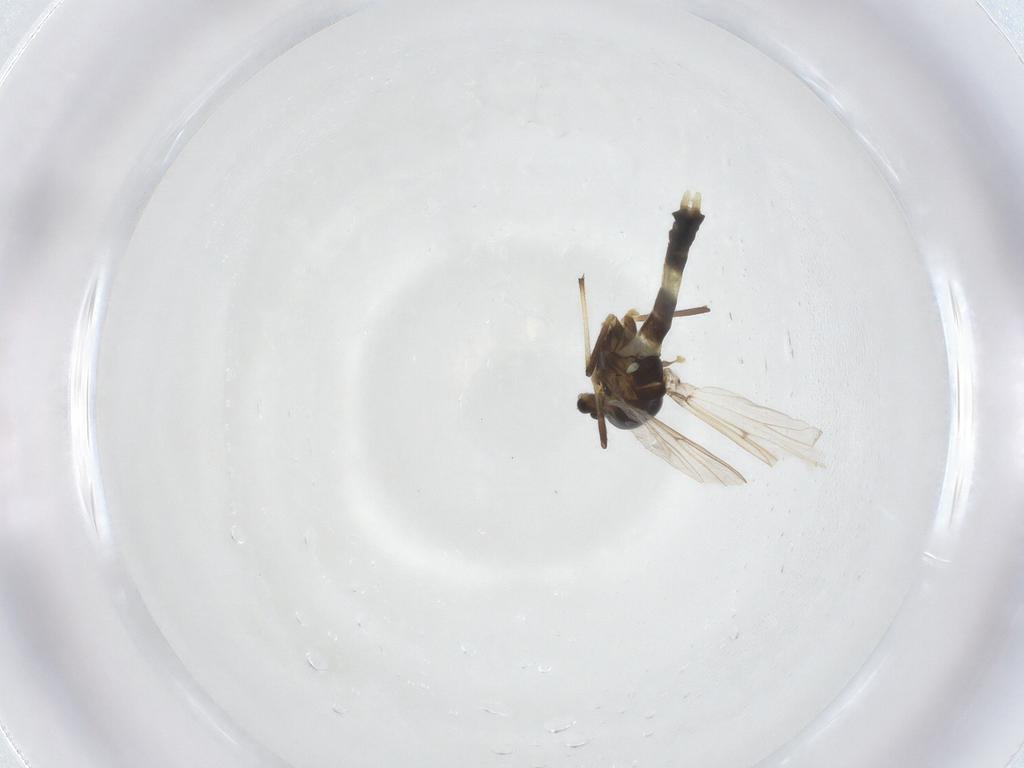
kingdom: Animalia
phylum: Arthropoda
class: Insecta
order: Diptera
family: Chironomidae
